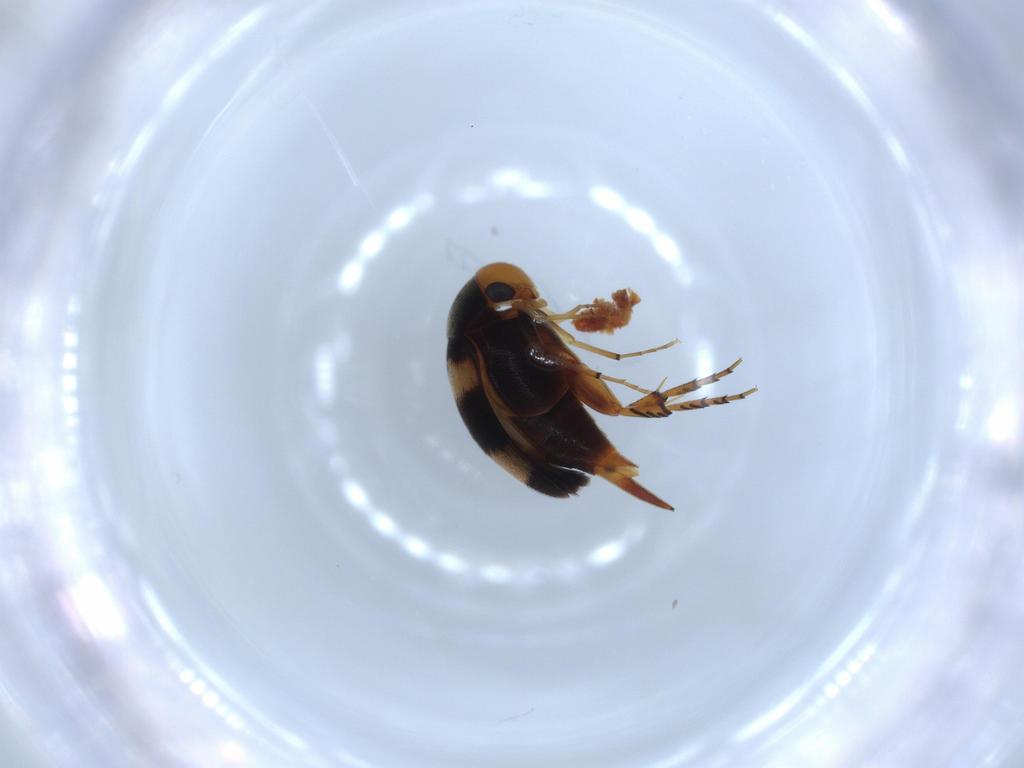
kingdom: Animalia
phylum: Arthropoda
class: Insecta
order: Coleoptera
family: Mordellidae
